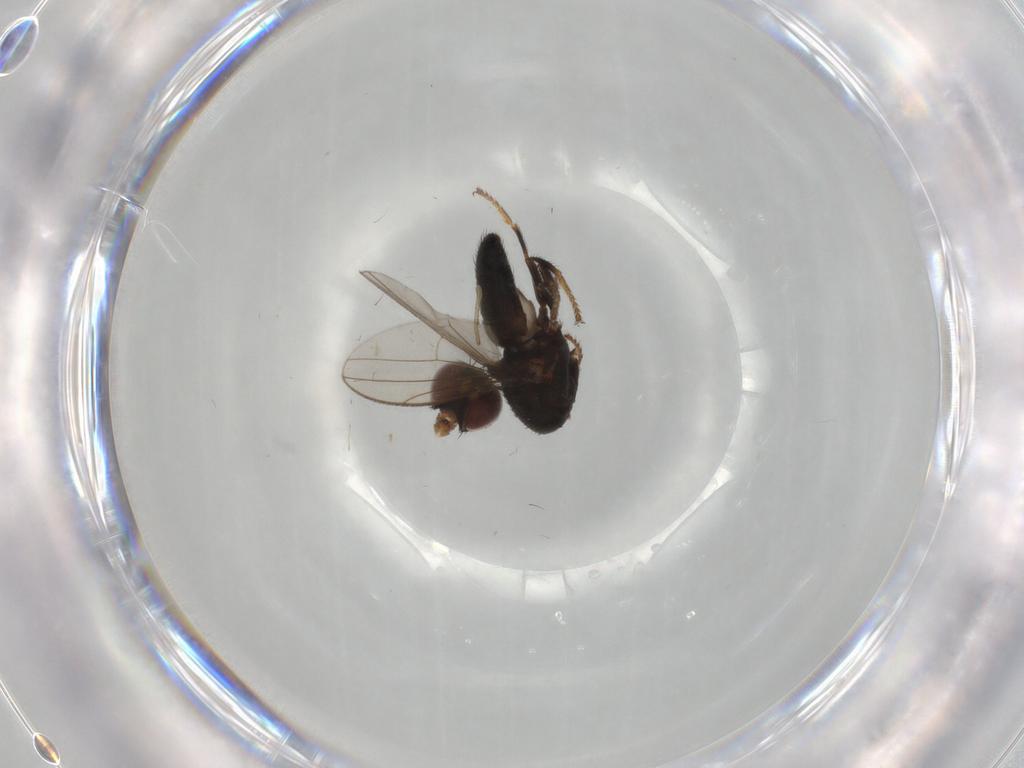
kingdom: Animalia
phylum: Arthropoda
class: Insecta
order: Diptera
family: Ephydridae
